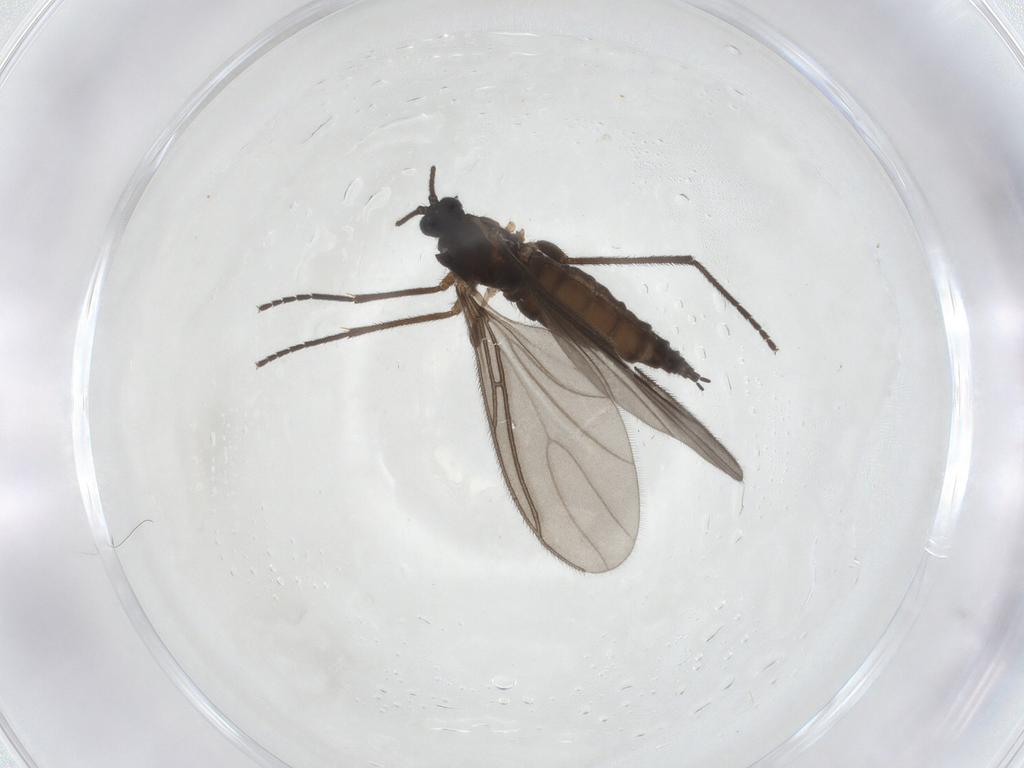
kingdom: Animalia
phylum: Arthropoda
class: Insecta
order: Diptera
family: Sciaridae
